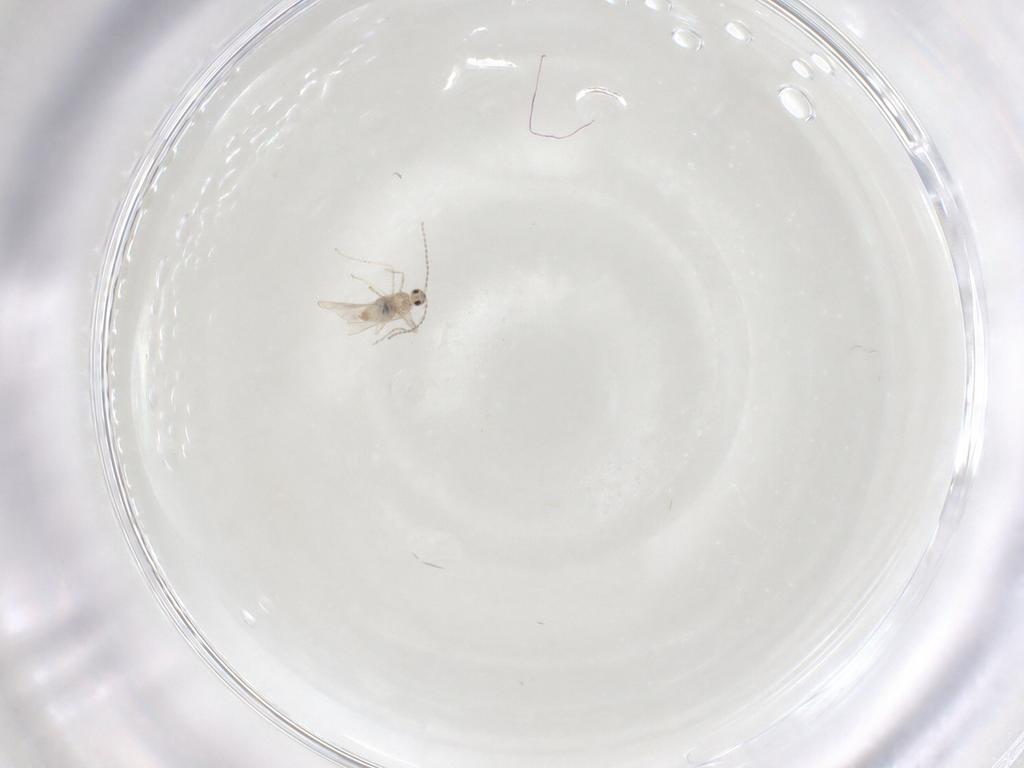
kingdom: Animalia
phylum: Arthropoda
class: Insecta
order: Diptera
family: Cecidomyiidae
